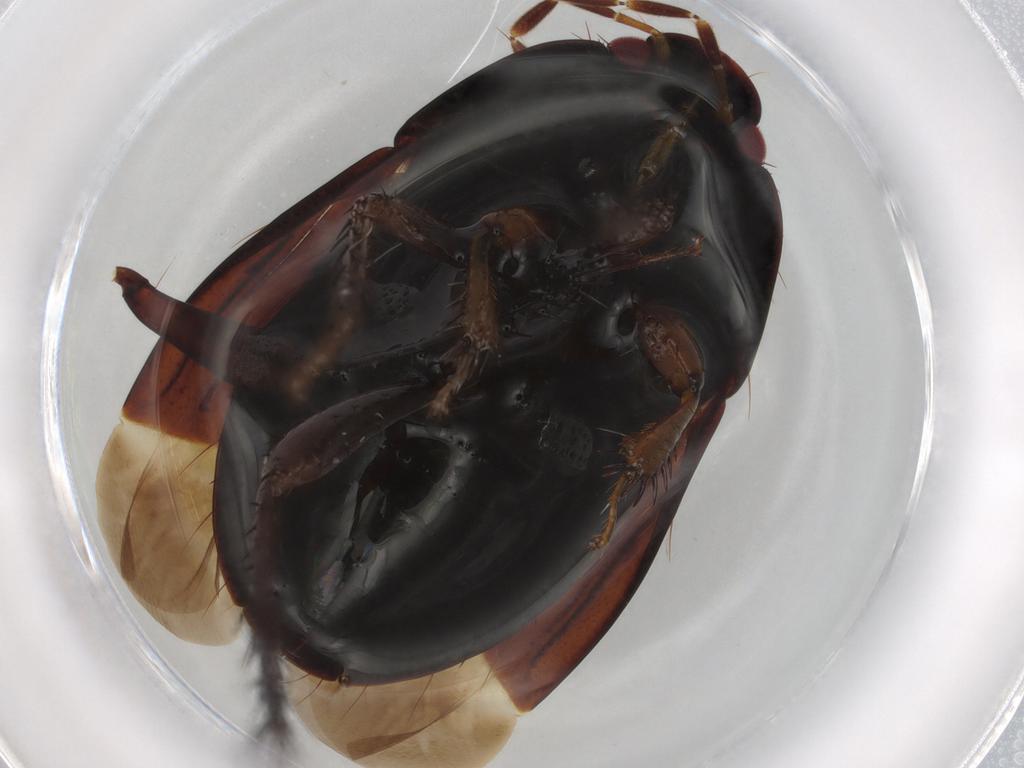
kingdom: Animalia
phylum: Arthropoda
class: Insecta
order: Hemiptera
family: Cydnidae
